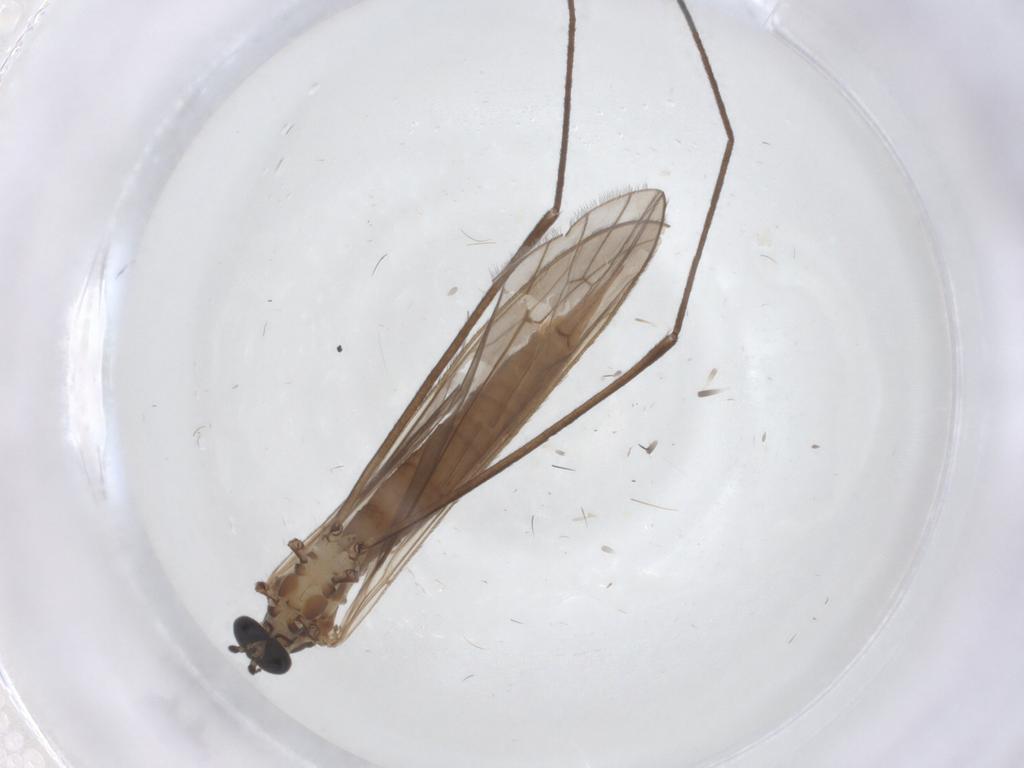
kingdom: Animalia
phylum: Arthropoda
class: Insecta
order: Diptera
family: Limoniidae
